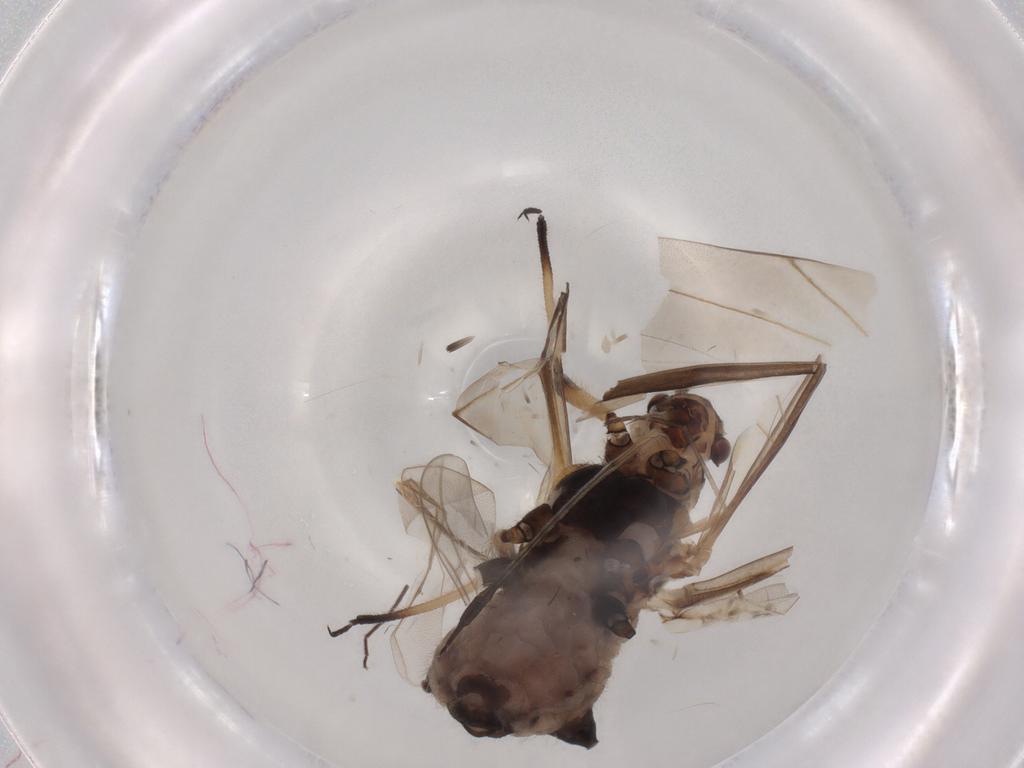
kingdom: Animalia
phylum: Arthropoda
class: Insecta
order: Hemiptera
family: Aphididae
